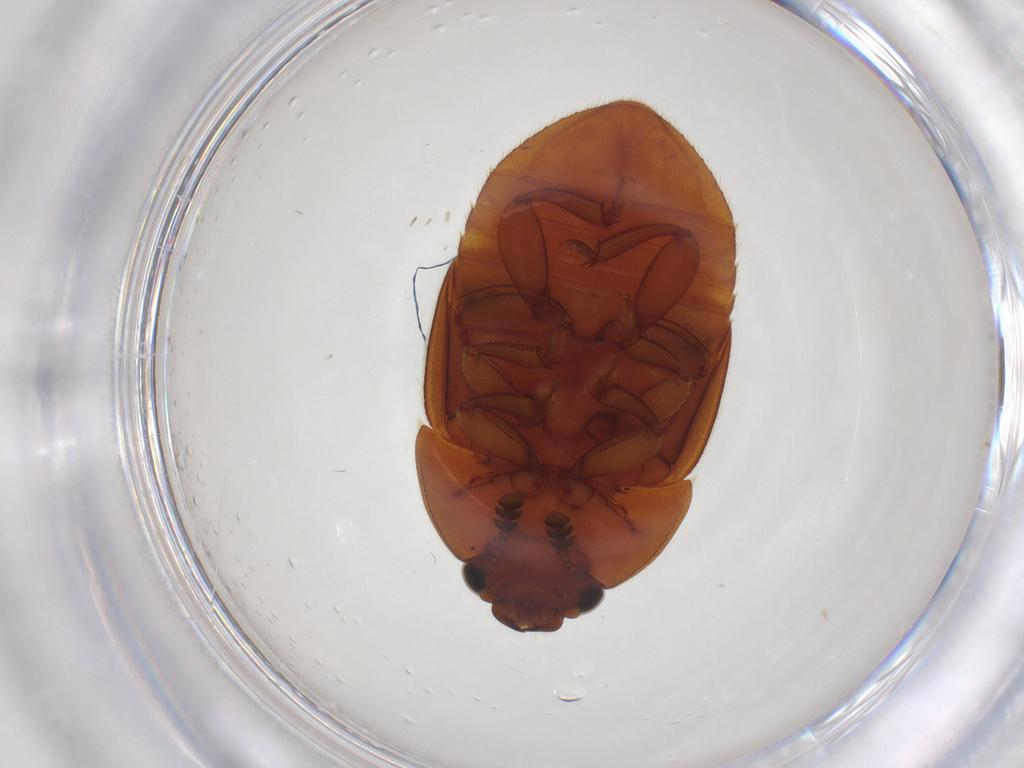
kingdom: Animalia
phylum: Arthropoda
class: Insecta
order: Coleoptera
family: Nitidulidae
